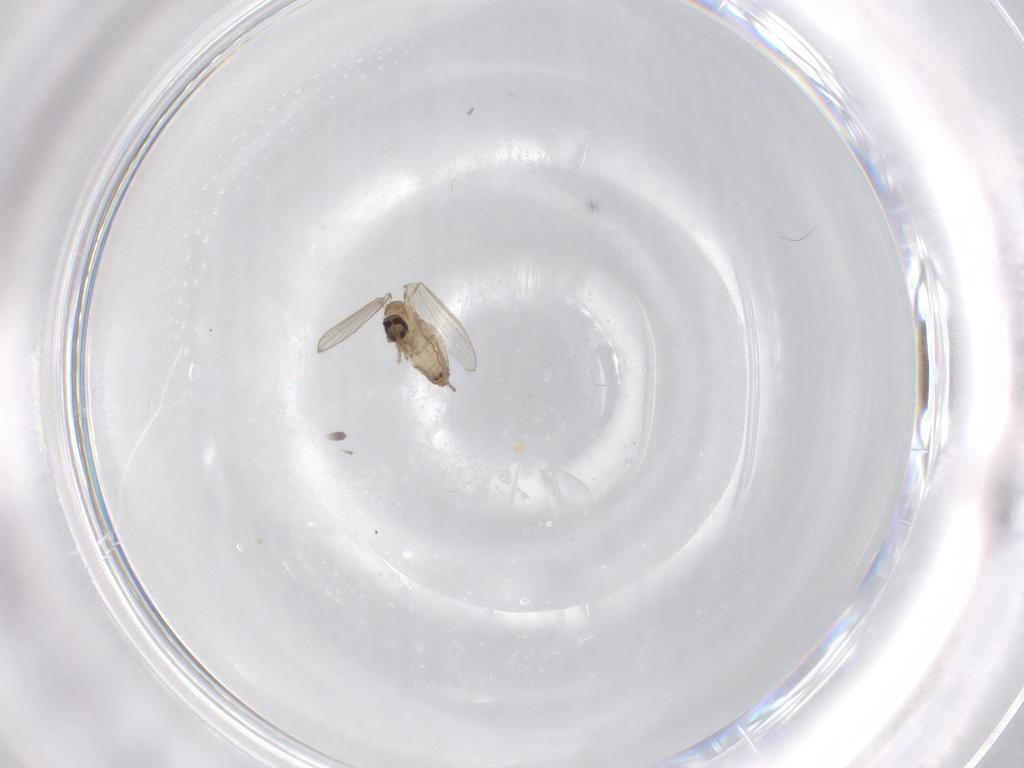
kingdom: Animalia
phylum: Arthropoda
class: Insecta
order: Diptera
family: Psychodidae
